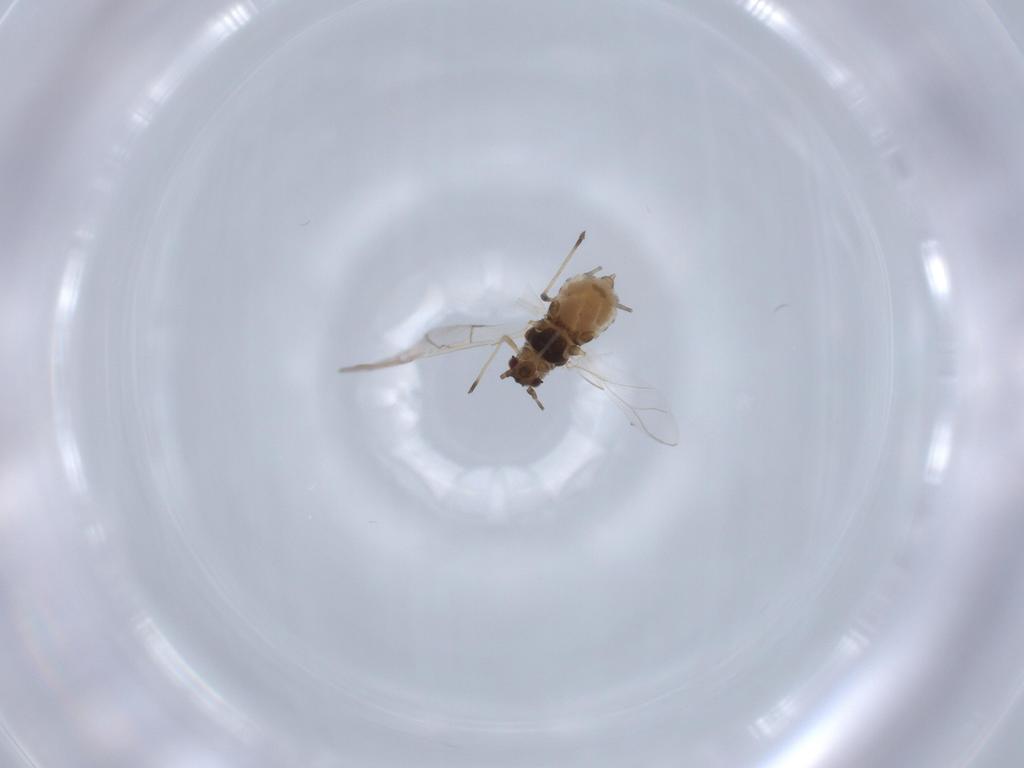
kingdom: Animalia
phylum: Arthropoda
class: Insecta
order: Hemiptera
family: Aphididae
